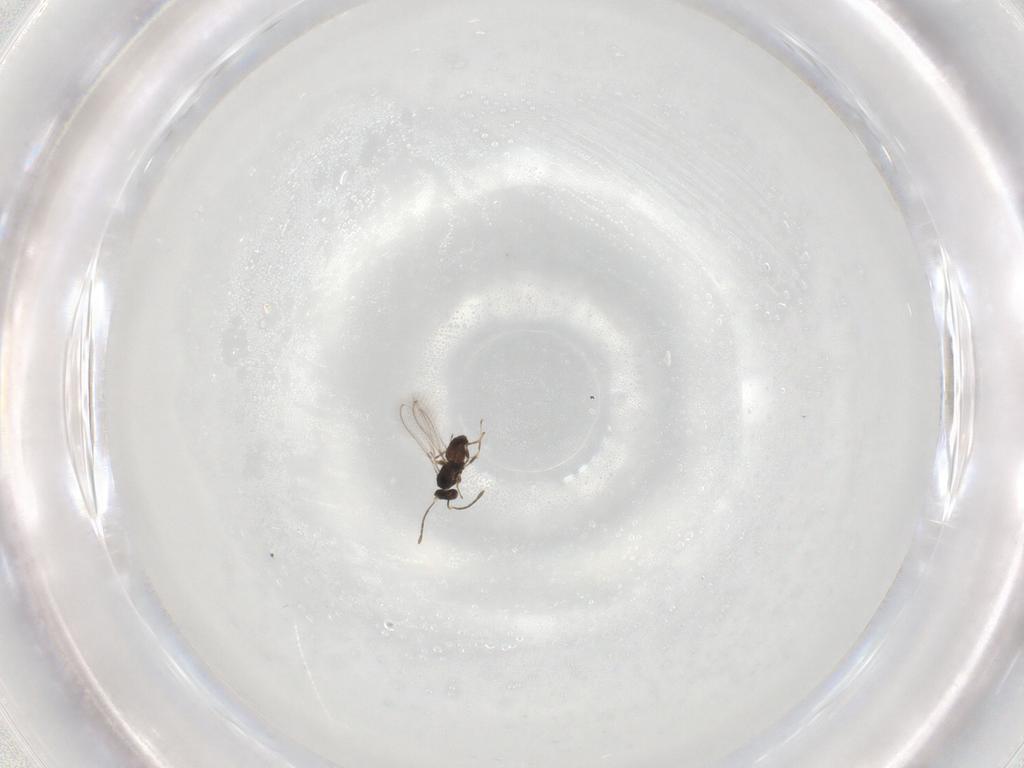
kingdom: Animalia
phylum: Arthropoda
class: Insecta
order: Hymenoptera
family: Mymaridae
